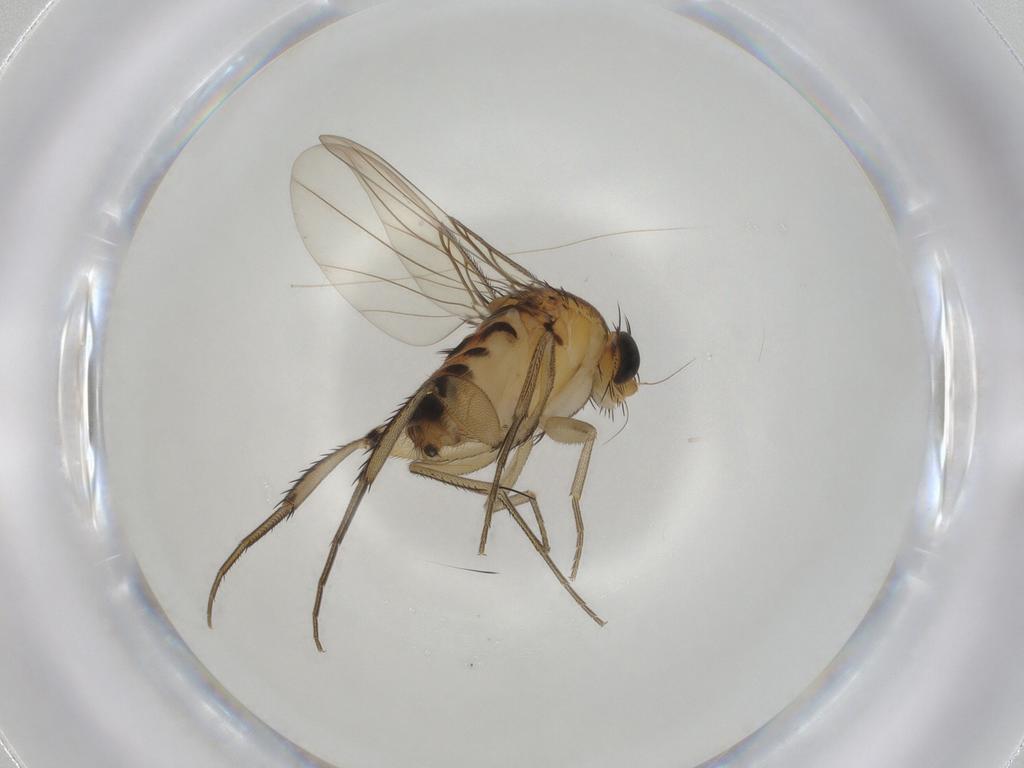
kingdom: Animalia
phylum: Arthropoda
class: Insecta
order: Diptera
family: Phoridae
